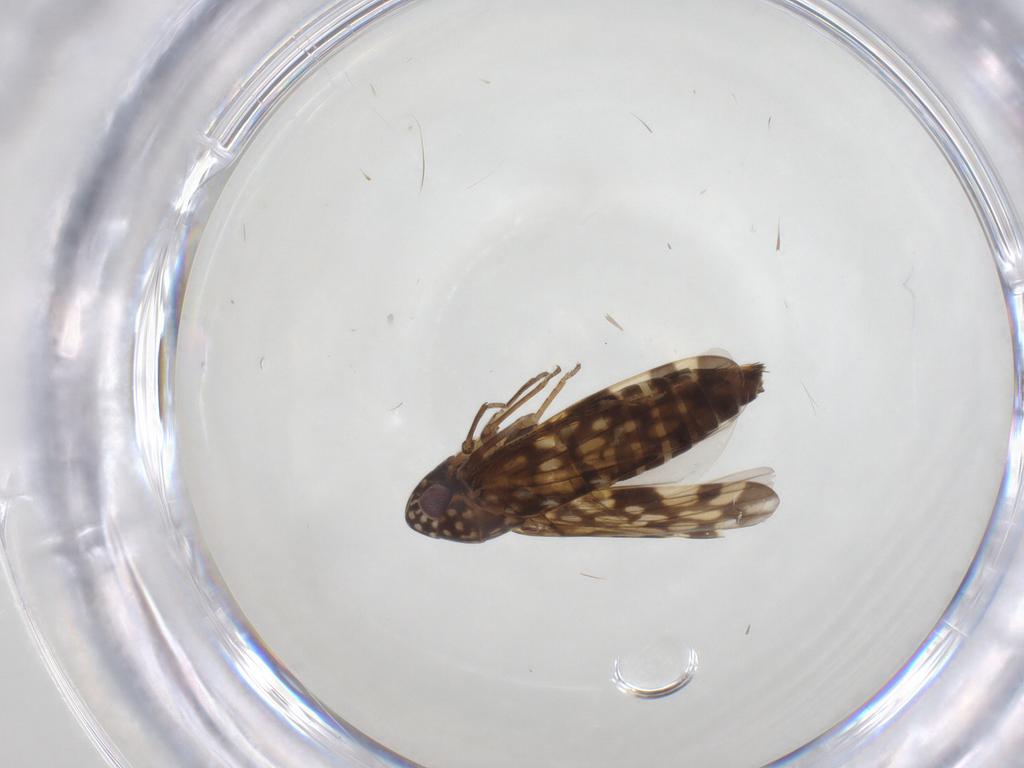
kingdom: Animalia
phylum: Arthropoda
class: Insecta
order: Hemiptera
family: Cicadellidae
